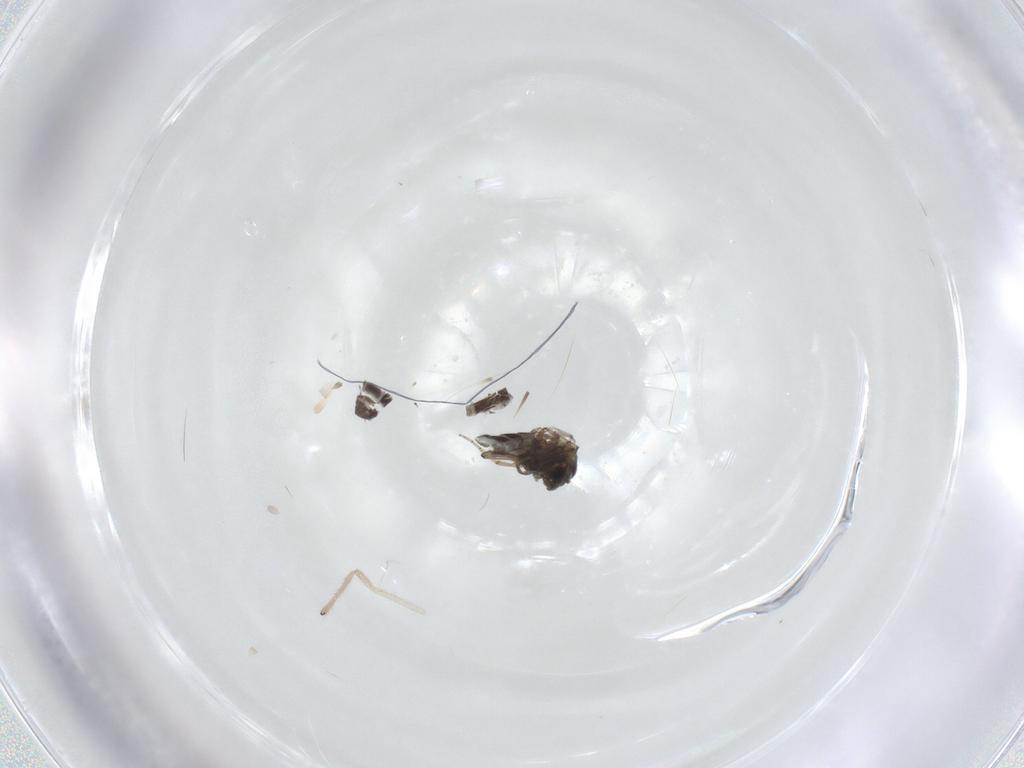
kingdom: Animalia
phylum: Arthropoda
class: Insecta
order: Diptera
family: Ceratopogonidae
